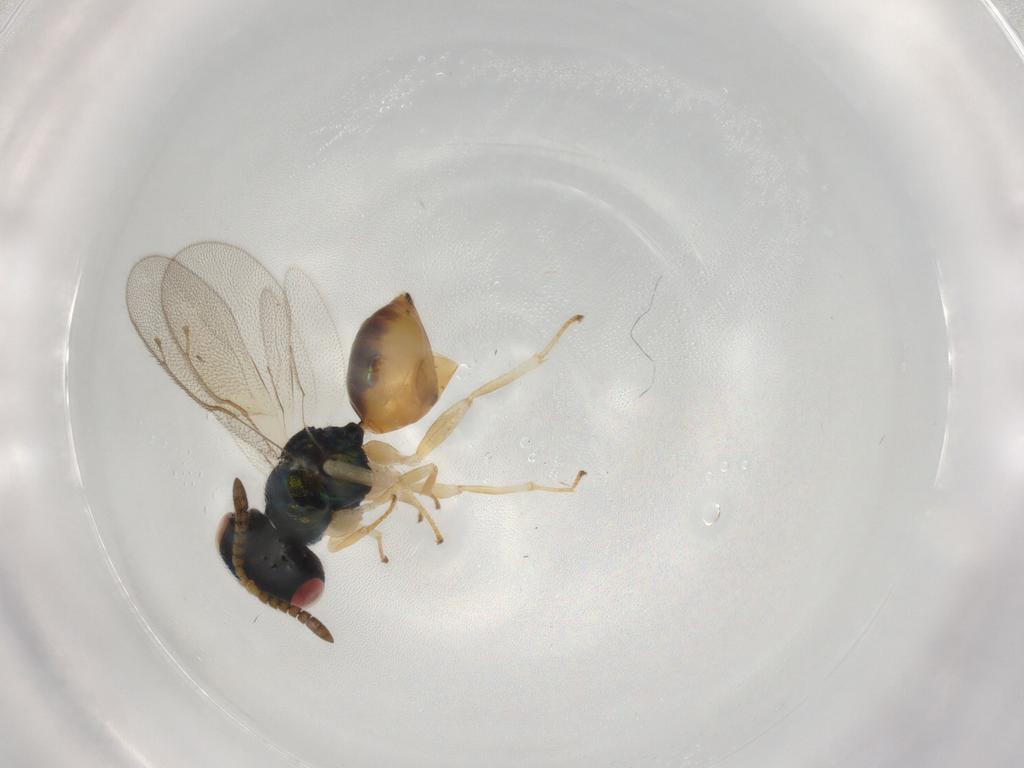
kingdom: Animalia
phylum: Arthropoda
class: Insecta
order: Hymenoptera
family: Pteromalidae
